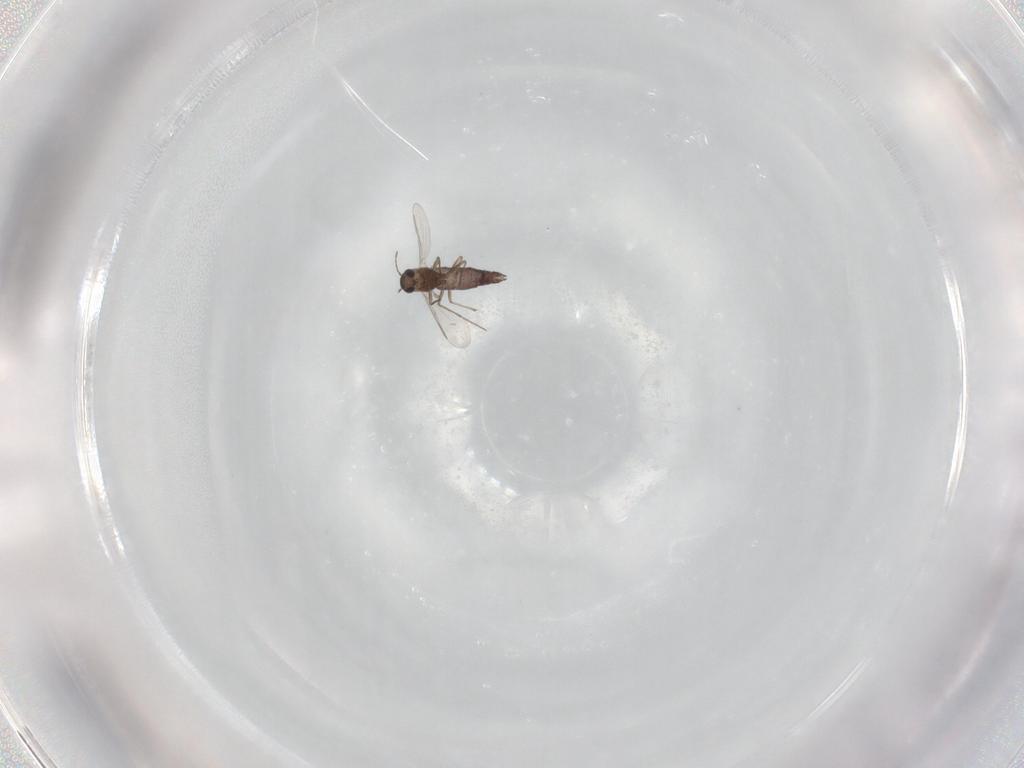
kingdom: Animalia
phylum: Arthropoda
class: Insecta
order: Diptera
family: Chironomidae
